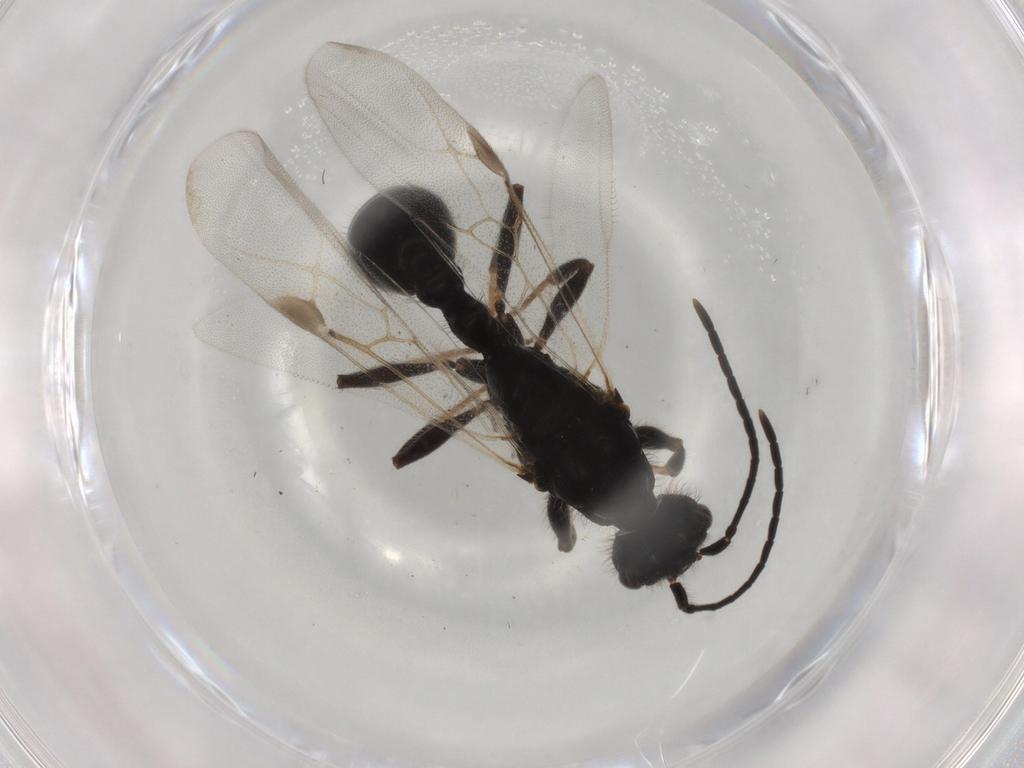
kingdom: Animalia
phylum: Arthropoda
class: Insecta
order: Hymenoptera
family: Formicidae
